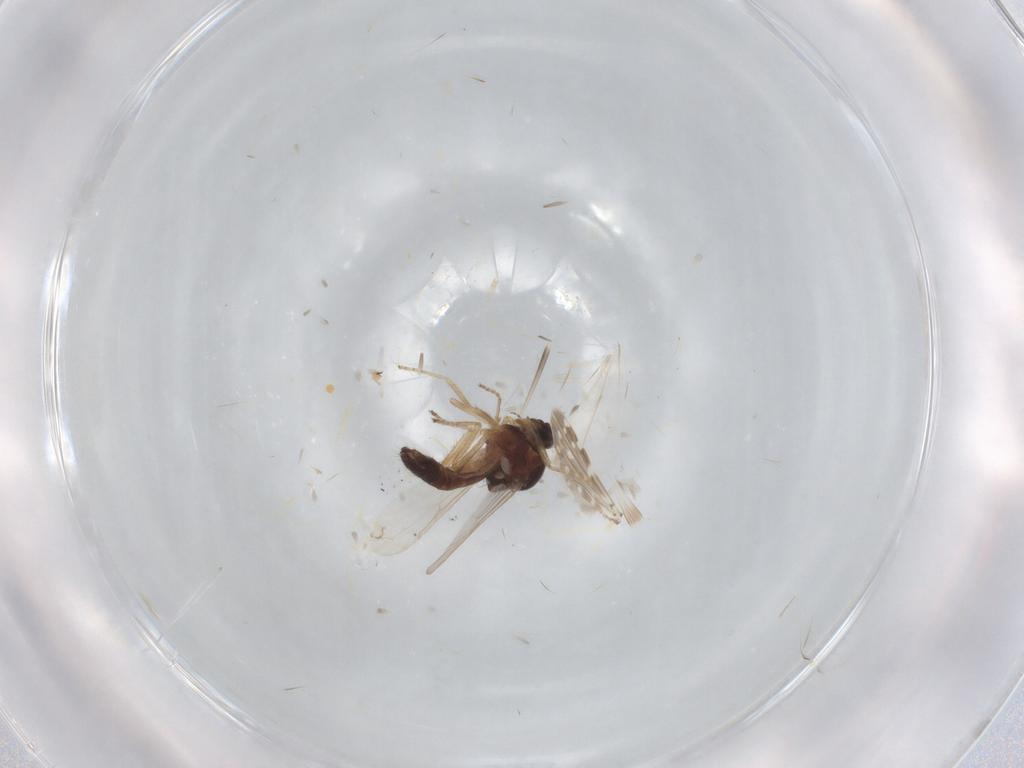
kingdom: Animalia
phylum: Arthropoda
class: Insecta
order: Diptera
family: Ceratopogonidae
